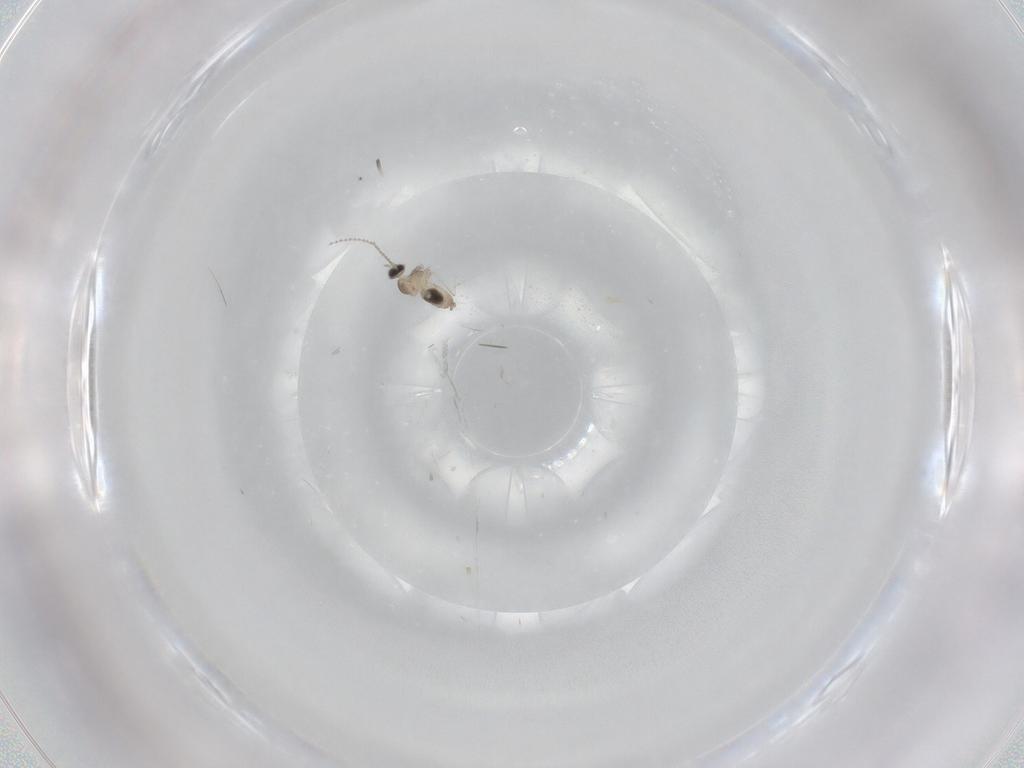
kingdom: Animalia
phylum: Arthropoda
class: Insecta
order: Diptera
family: Cecidomyiidae
